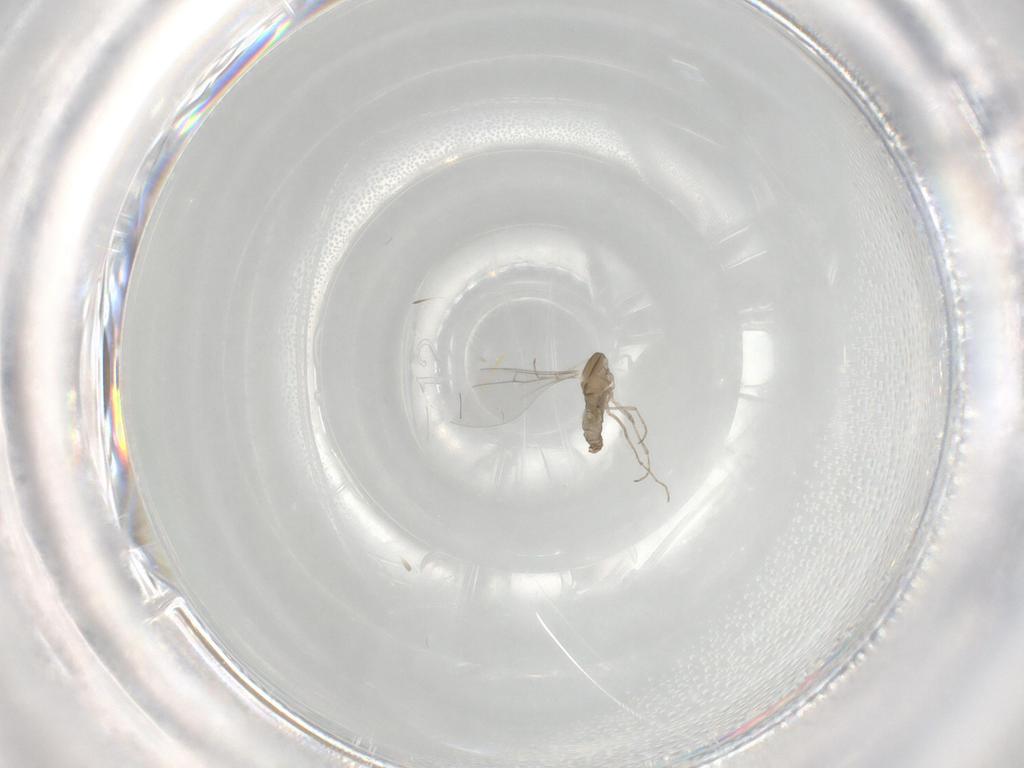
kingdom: Animalia
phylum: Arthropoda
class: Insecta
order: Diptera
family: Cecidomyiidae
